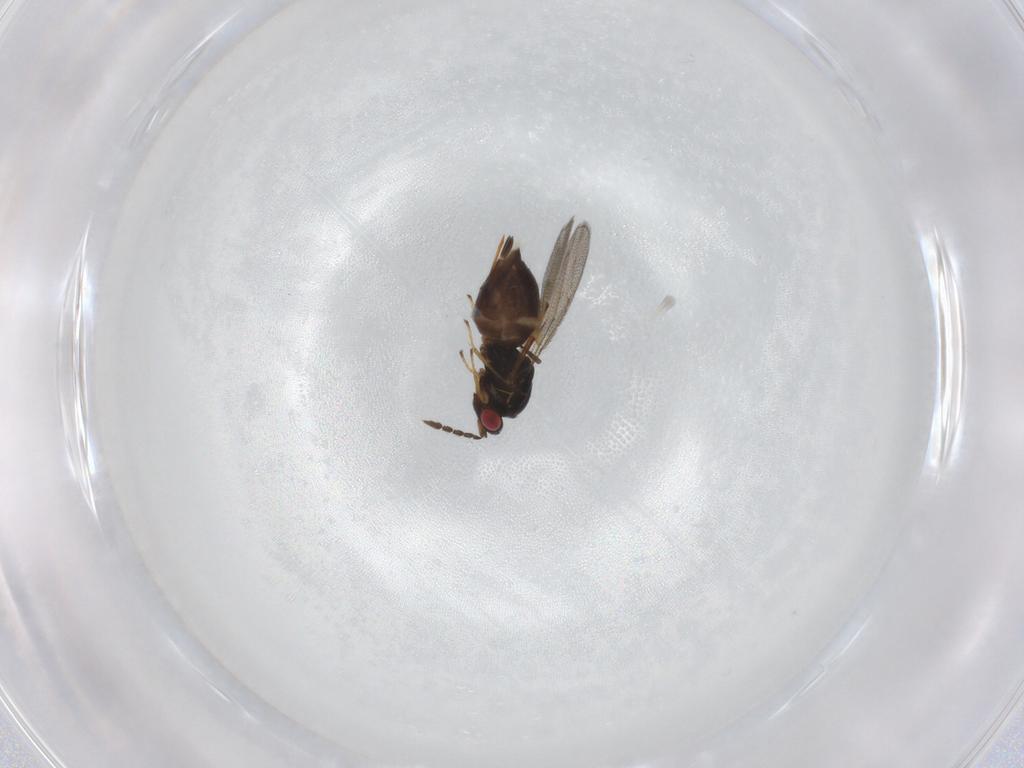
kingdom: Animalia
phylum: Arthropoda
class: Insecta
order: Hymenoptera
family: Eulophidae
